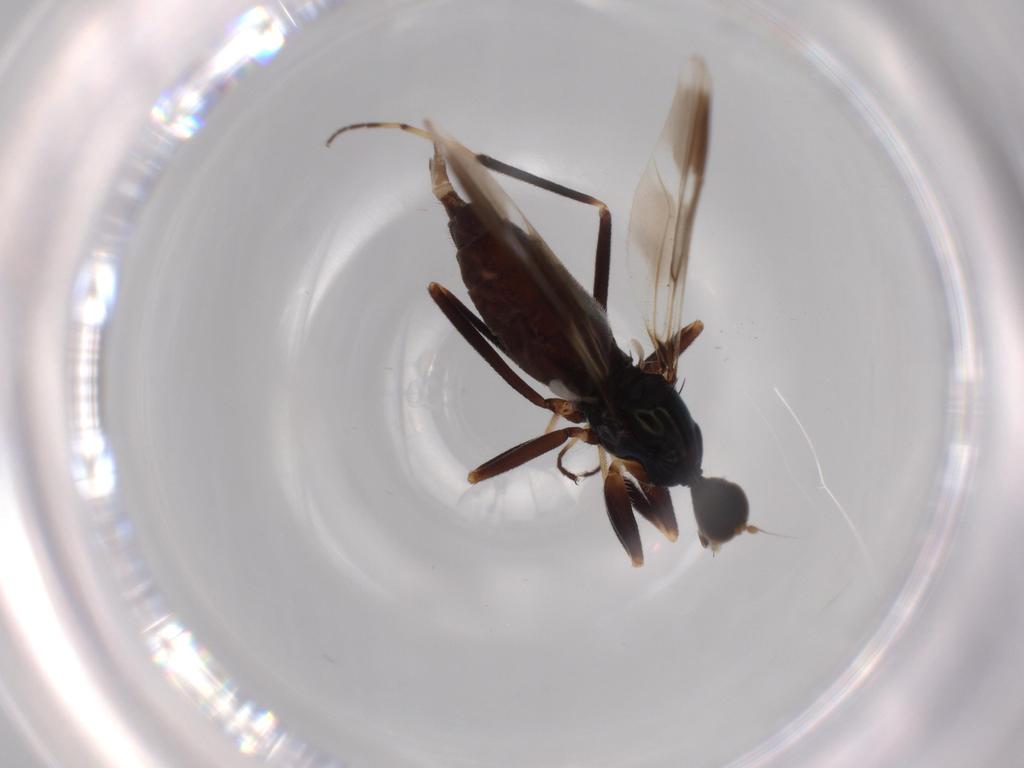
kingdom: Animalia
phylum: Arthropoda
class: Insecta
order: Diptera
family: Hybotidae
